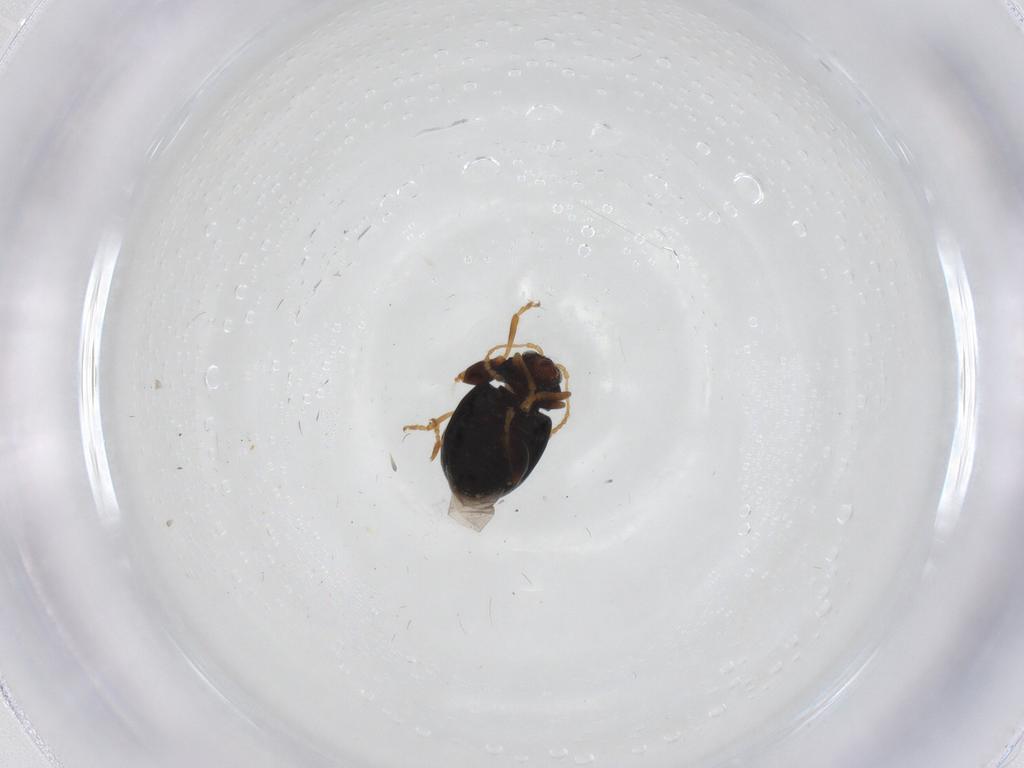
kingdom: Animalia
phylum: Arthropoda
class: Insecta
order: Coleoptera
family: Chrysomelidae
